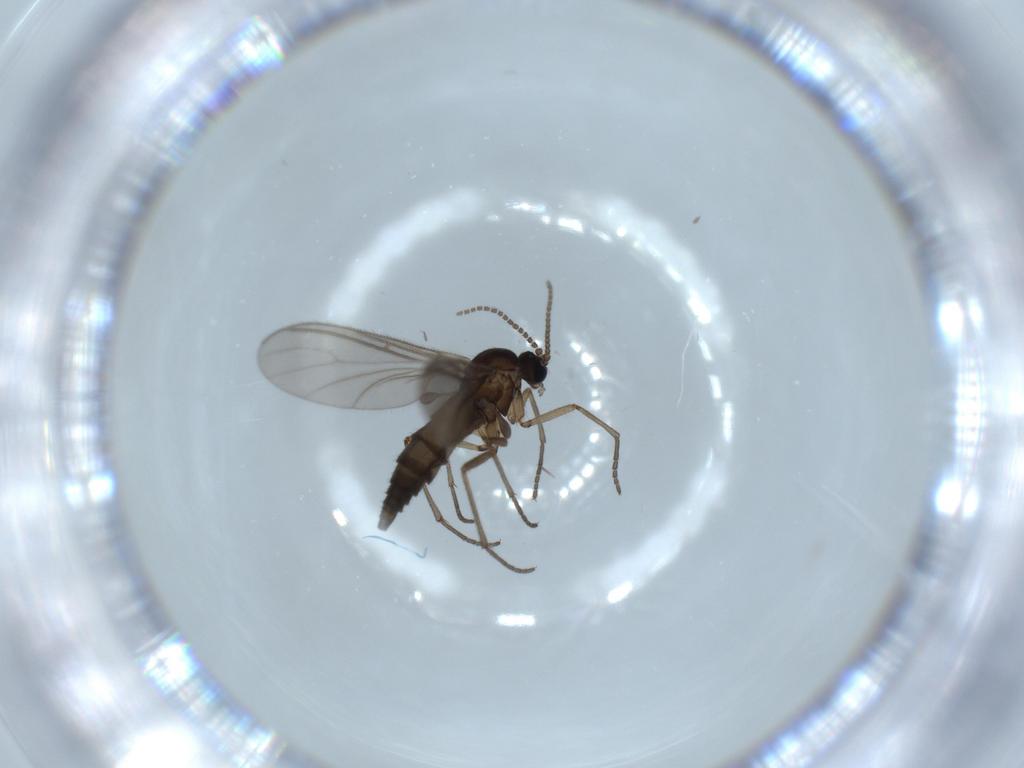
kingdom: Animalia
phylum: Arthropoda
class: Insecta
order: Diptera
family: Sciaridae
